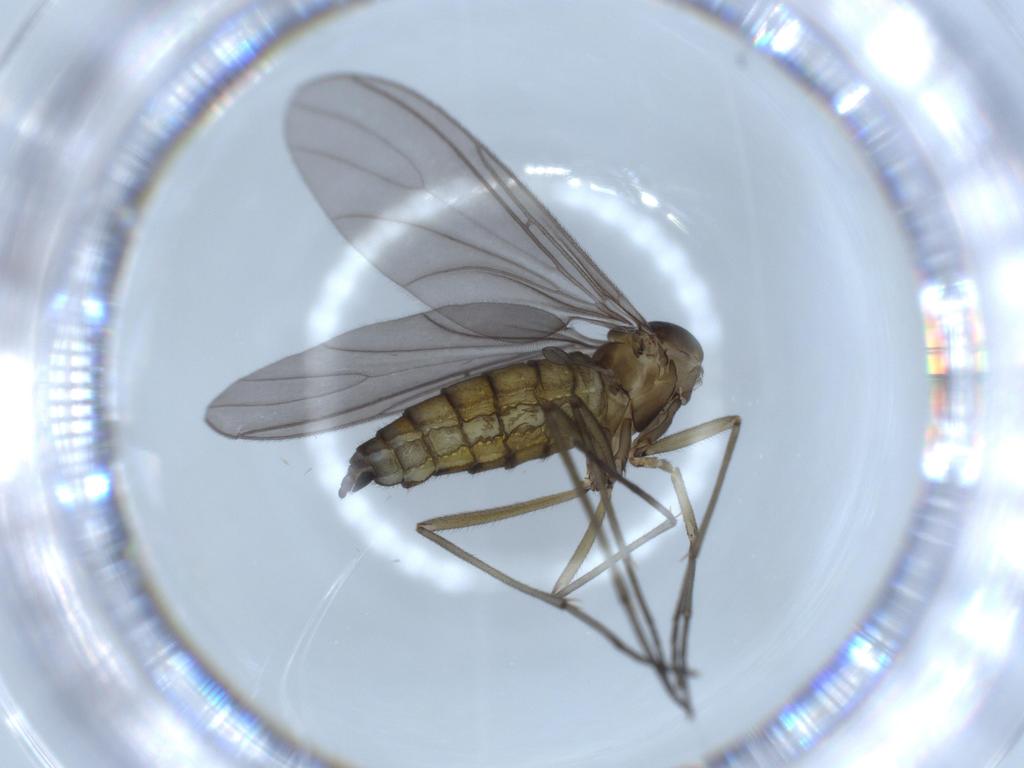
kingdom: Animalia
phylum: Arthropoda
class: Insecta
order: Diptera
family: Sciaridae
